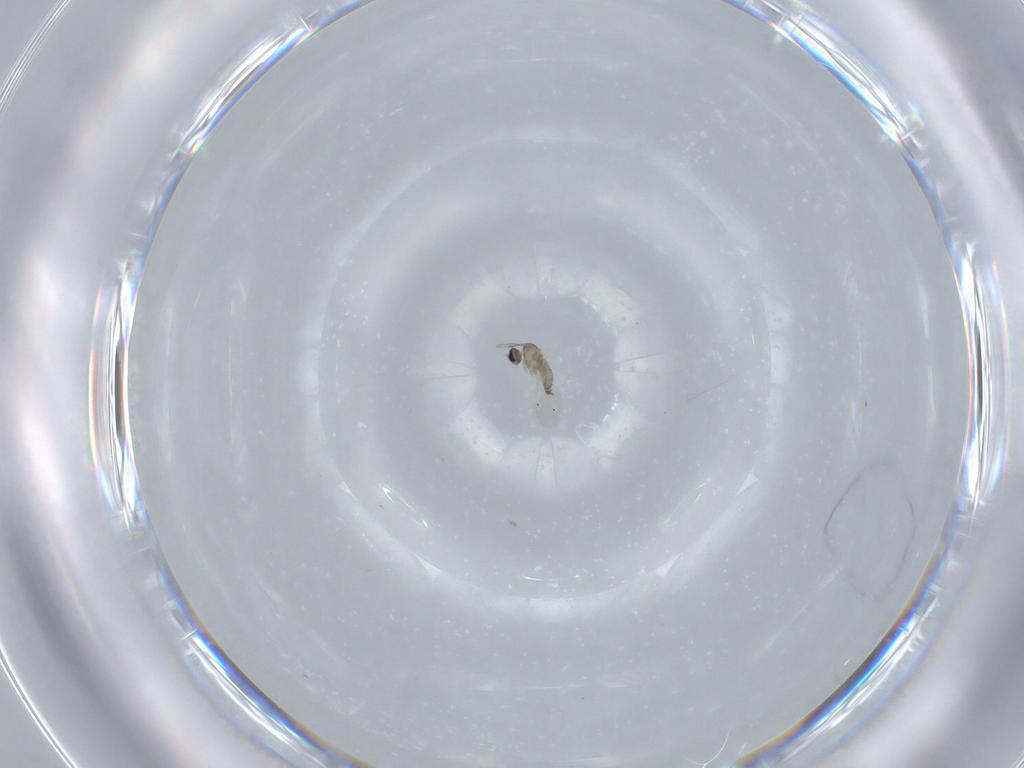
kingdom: Animalia
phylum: Arthropoda
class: Insecta
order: Diptera
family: Cecidomyiidae
